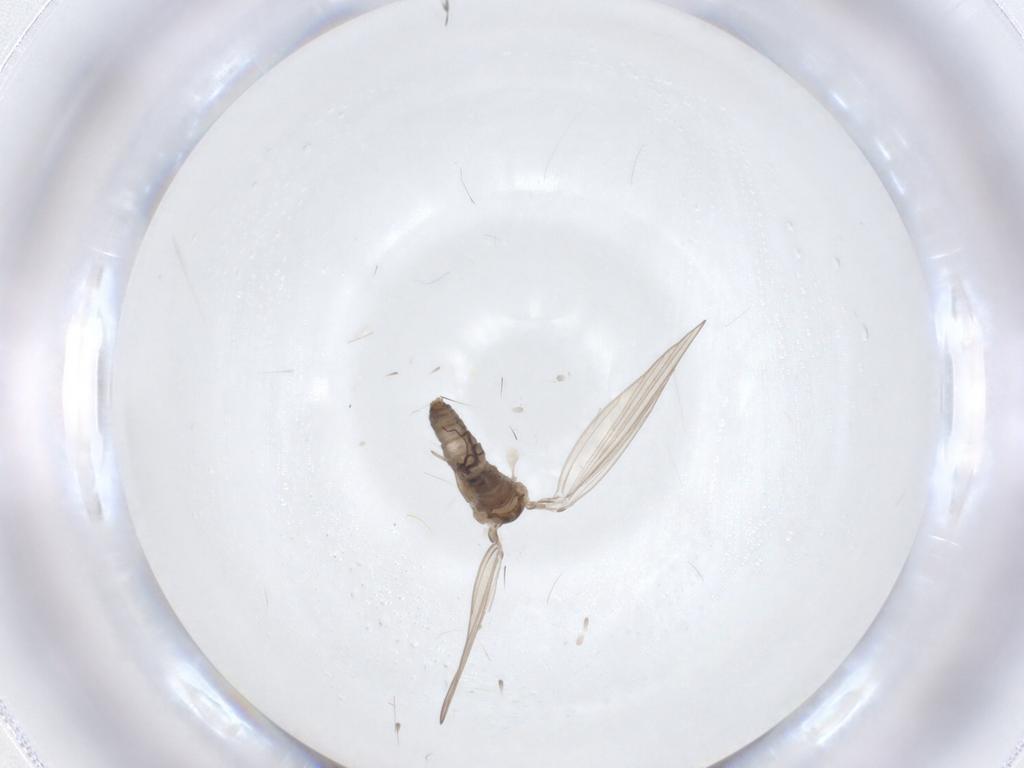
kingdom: Animalia
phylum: Arthropoda
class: Insecta
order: Diptera
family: Psychodidae
